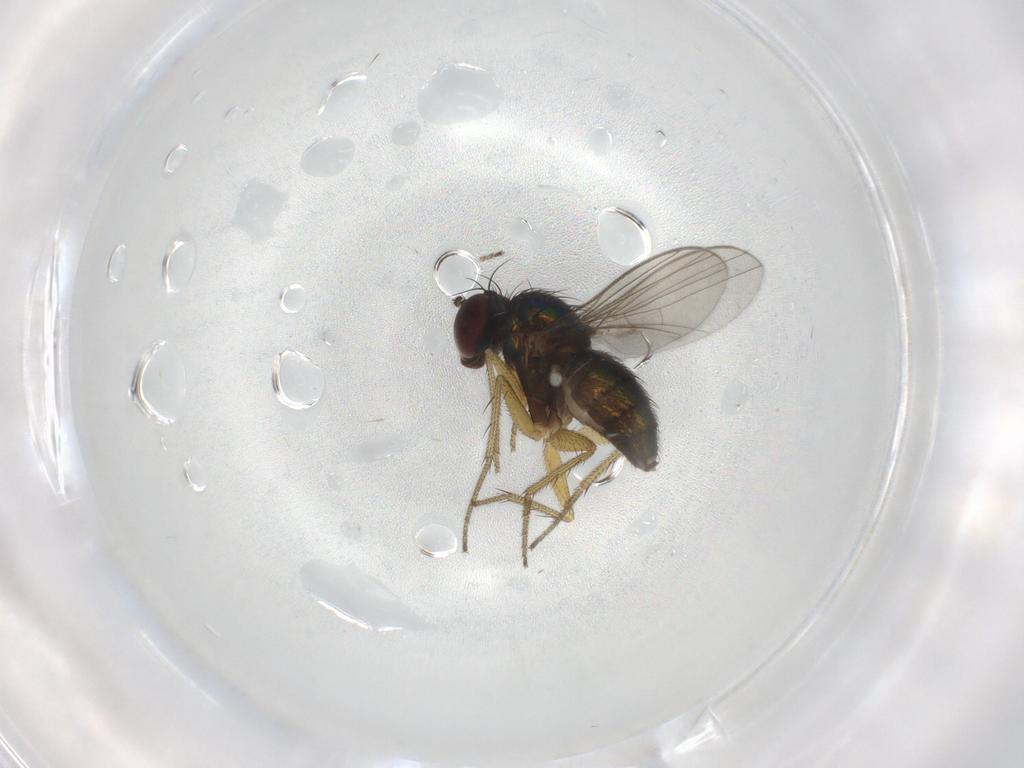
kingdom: Animalia
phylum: Arthropoda
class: Insecta
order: Diptera
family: Dolichopodidae
